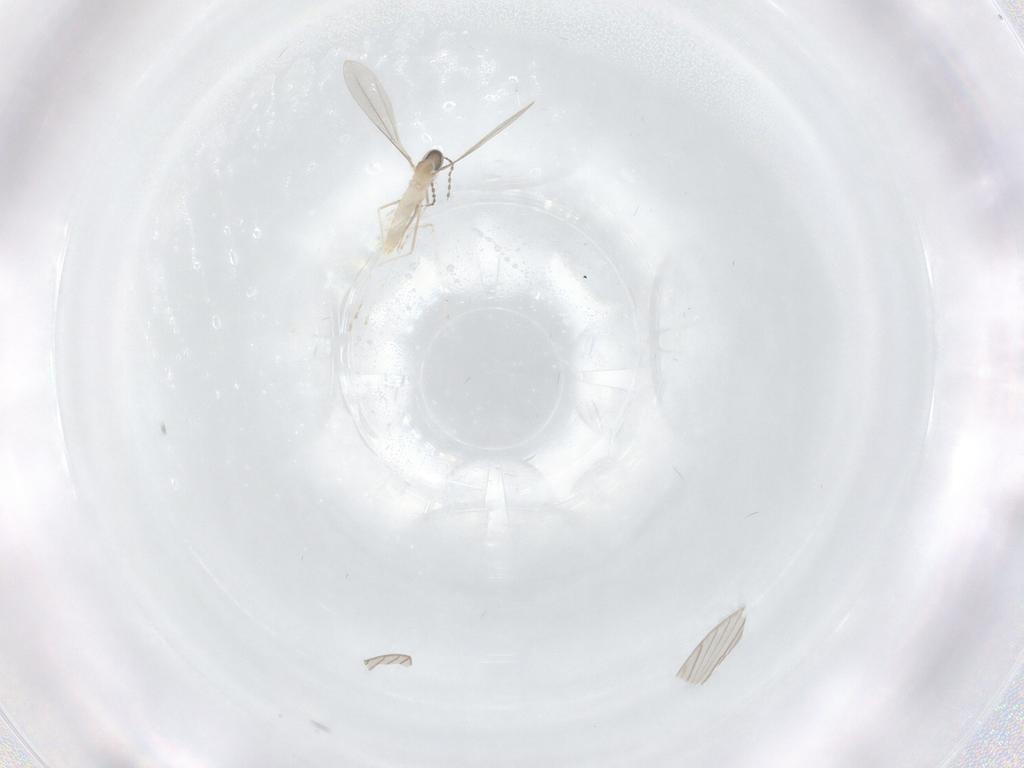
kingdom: Animalia
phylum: Arthropoda
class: Insecta
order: Diptera
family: Cecidomyiidae
